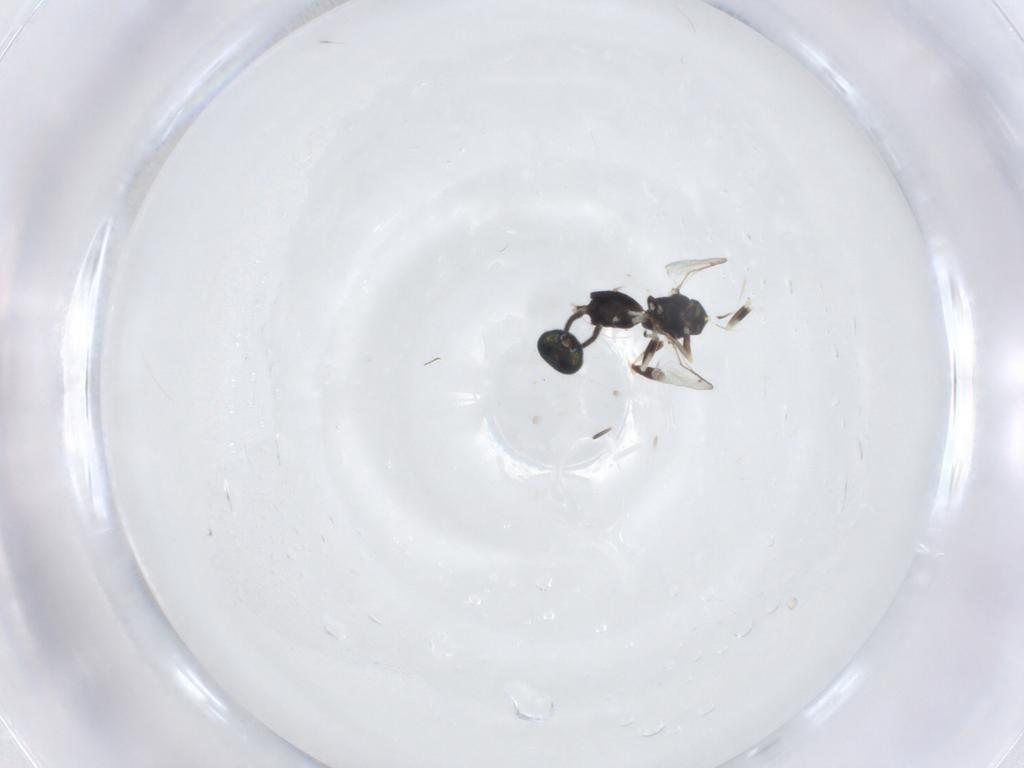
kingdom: Animalia
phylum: Arthropoda
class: Insecta
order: Hymenoptera
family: Eupelmidae
